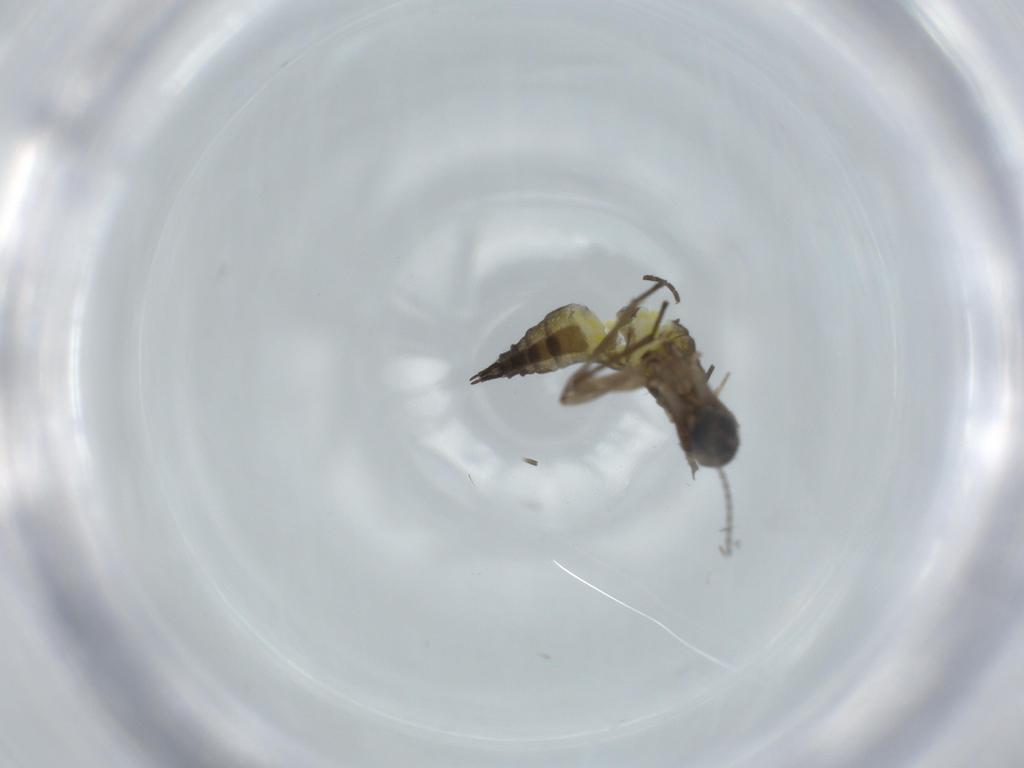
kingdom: Animalia
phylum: Arthropoda
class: Insecta
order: Diptera
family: Sciaridae
